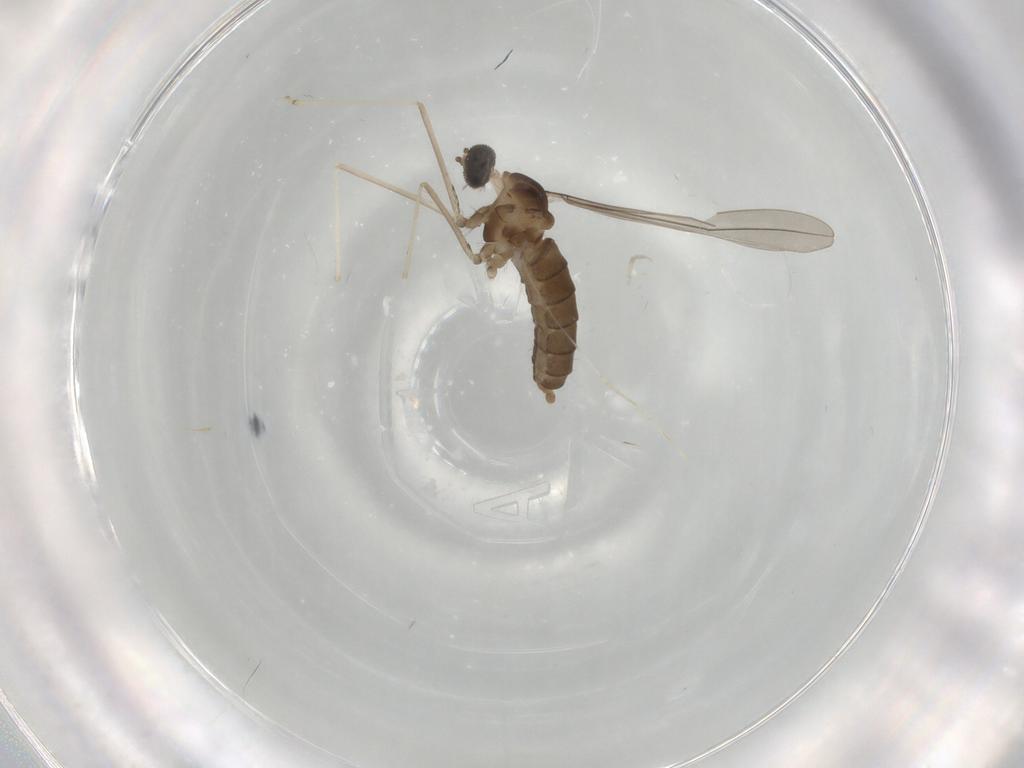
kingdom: Animalia
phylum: Arthropoda
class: Insecta
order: Diptera
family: Cecidomyiidae
